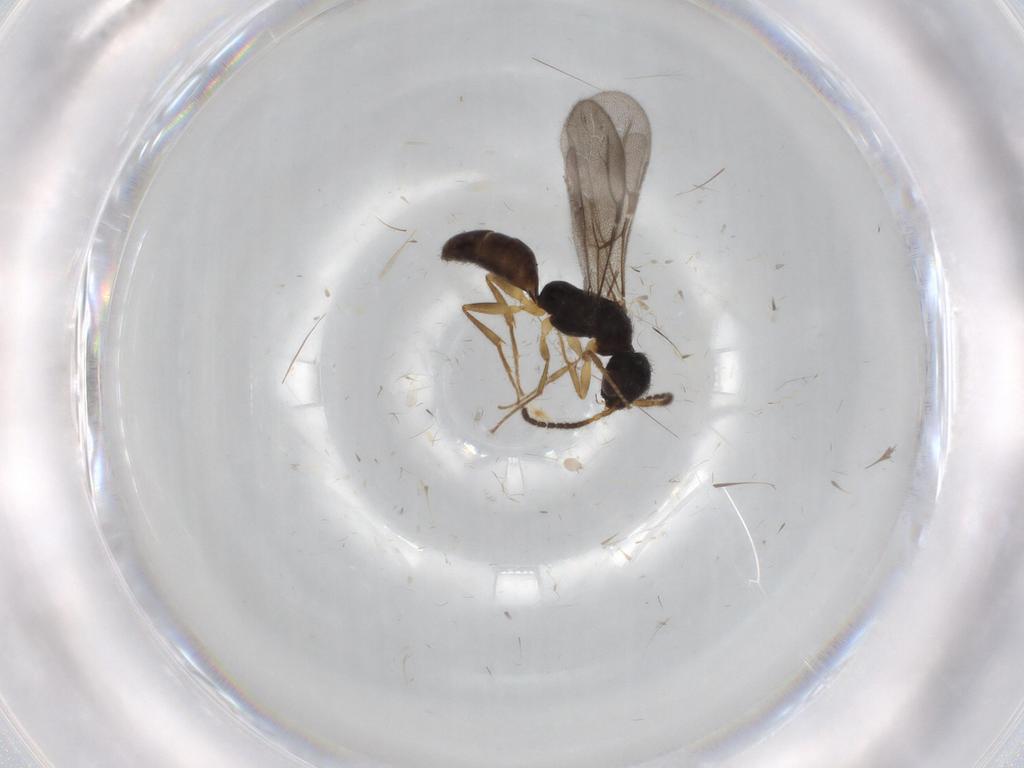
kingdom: Animalia
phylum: Arthropoda
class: Insecta
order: Hymenoptera
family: Bethylidae
